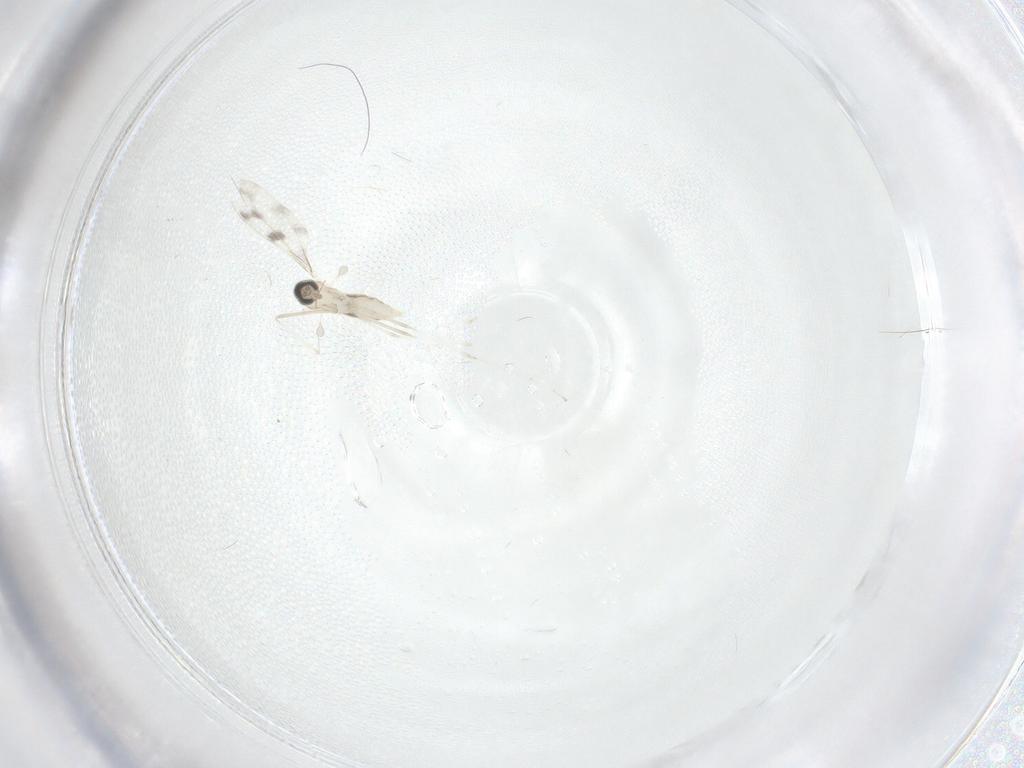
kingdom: Animalia
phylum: Arthropoda
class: Insecta
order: Diptera
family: Cecidomyiidae
